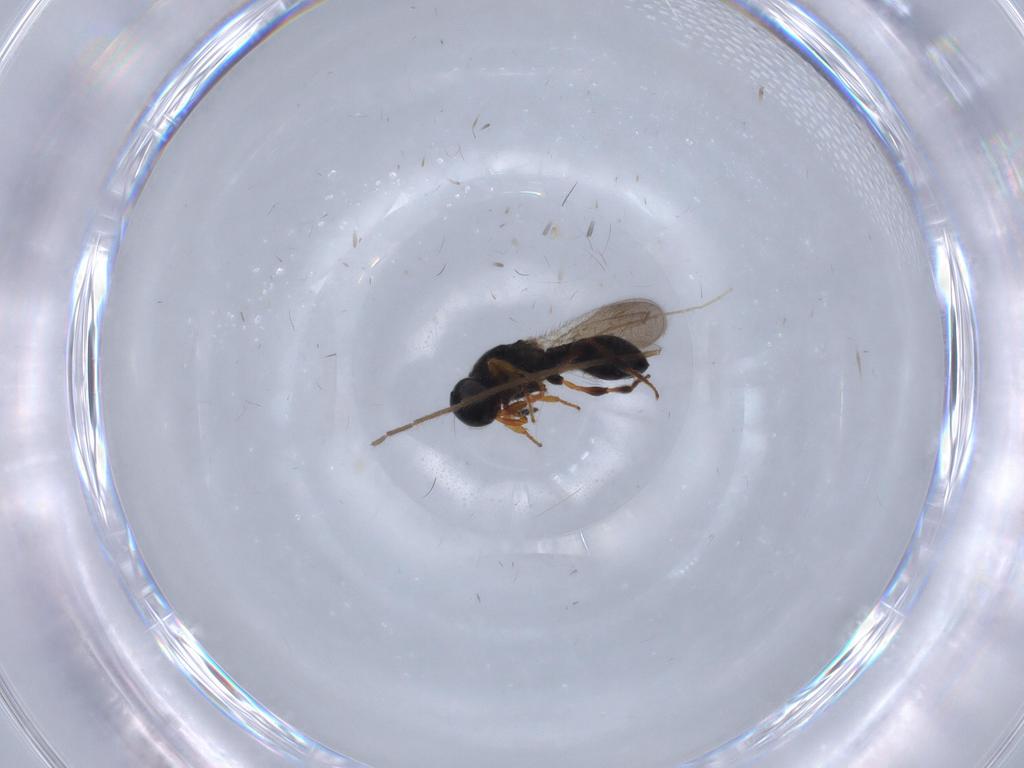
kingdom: Animalia
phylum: Arthropoda
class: Insecta
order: Hymenoptera
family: Platygastridae
